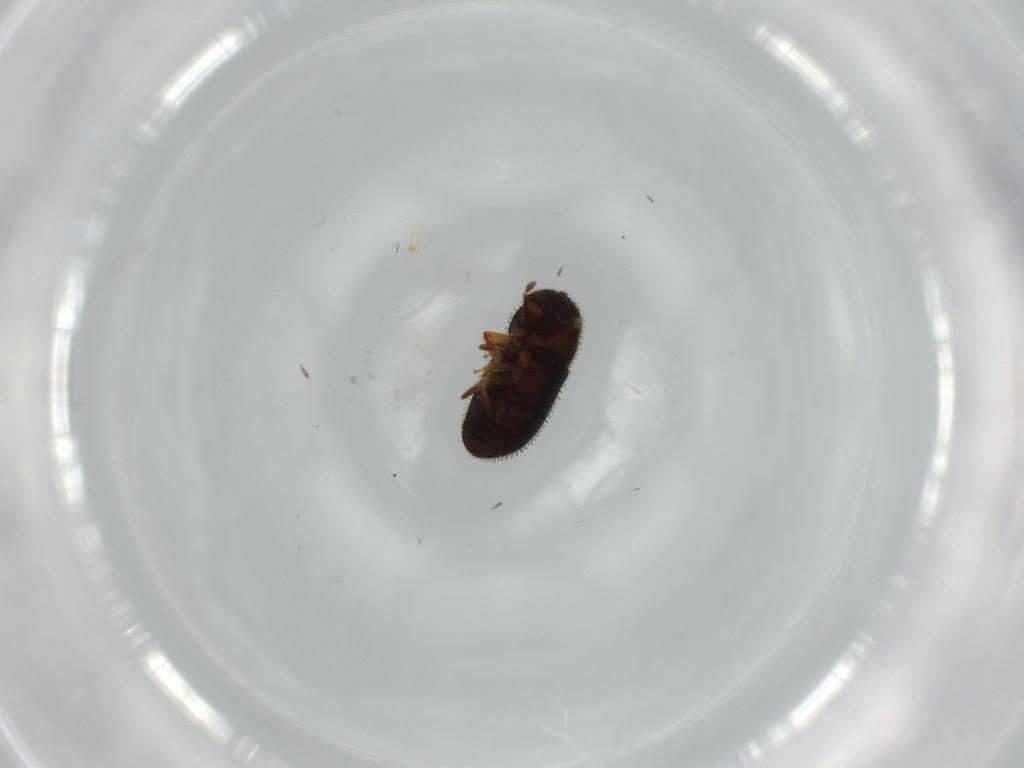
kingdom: Animalia
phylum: Arthropoda
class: Insecta
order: Coleoptera
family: Chrysomelidae
